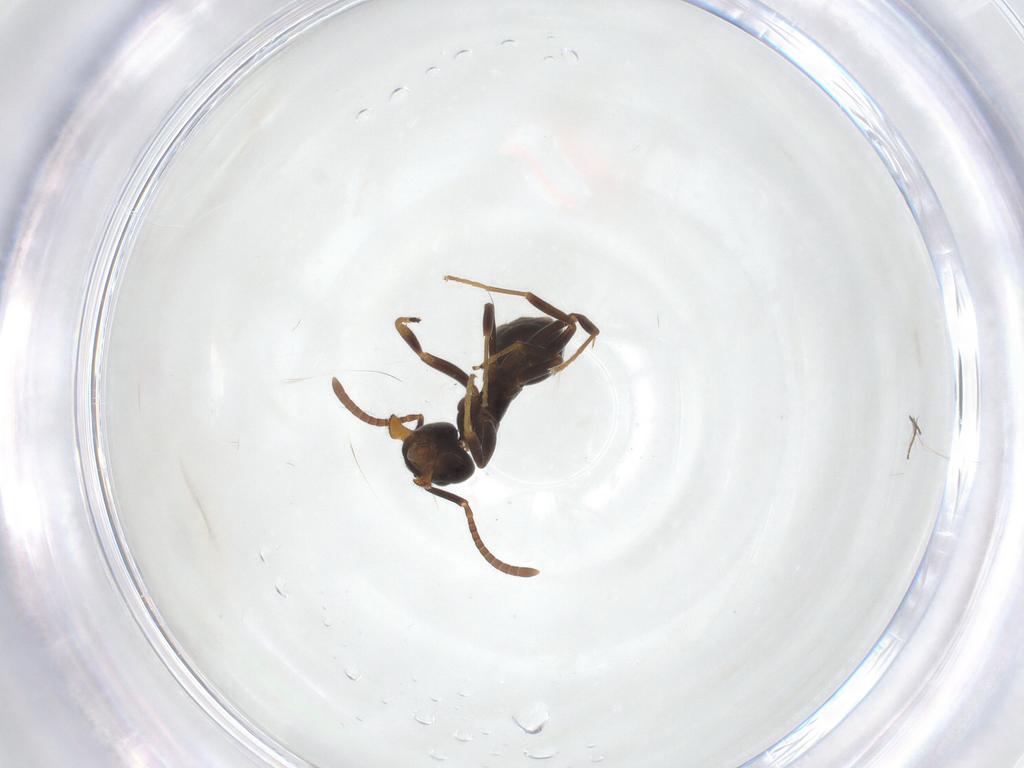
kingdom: Animalia
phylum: Arthropoda
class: Insecta
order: Hymenoptera
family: Formicidae
